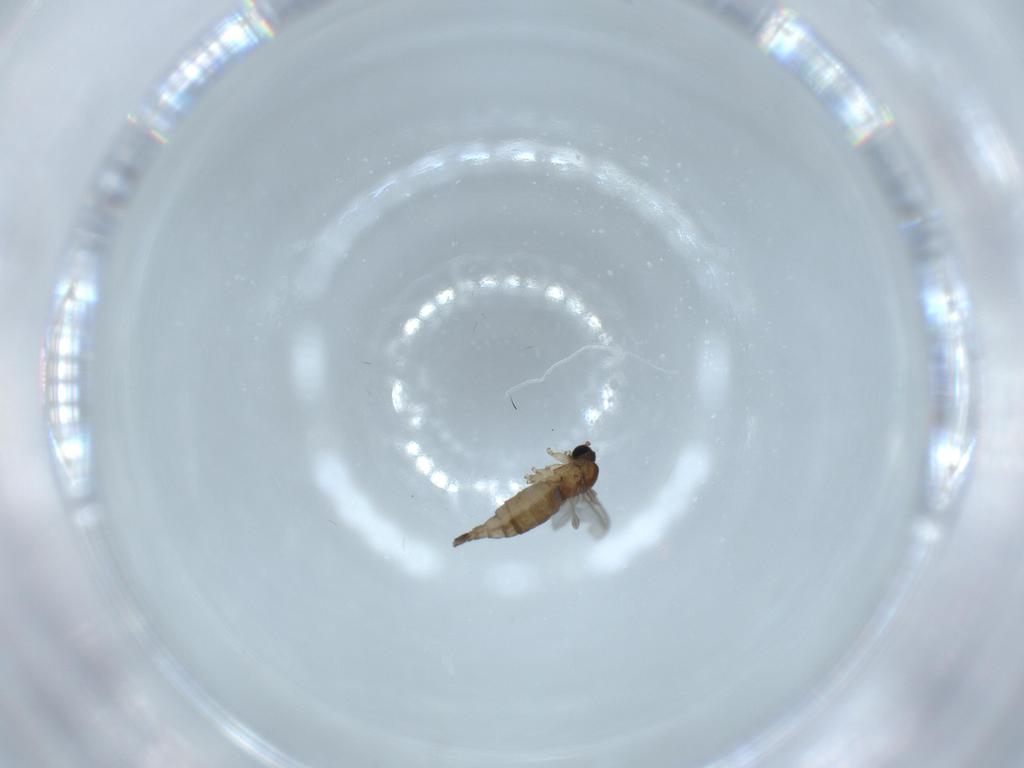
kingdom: Animalia
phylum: Arthropoda
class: Insecta
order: Diptera
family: Sciaridae
